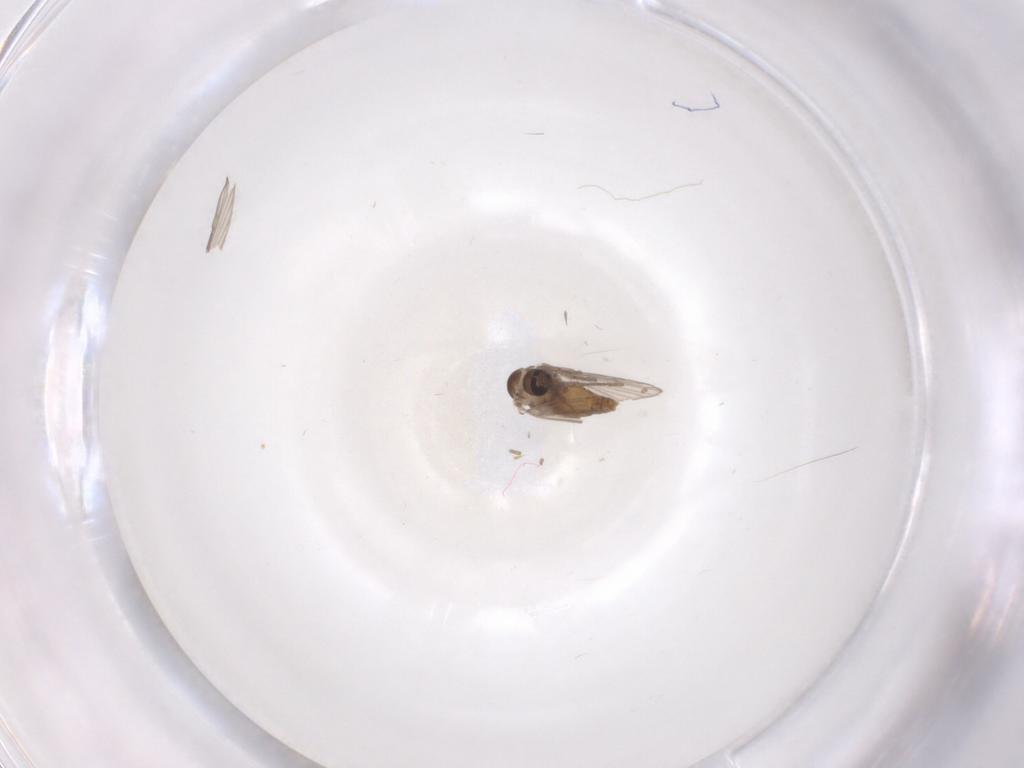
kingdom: Animalia
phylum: Arthropoda
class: Insecta
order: Diptera
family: Psychodidae
